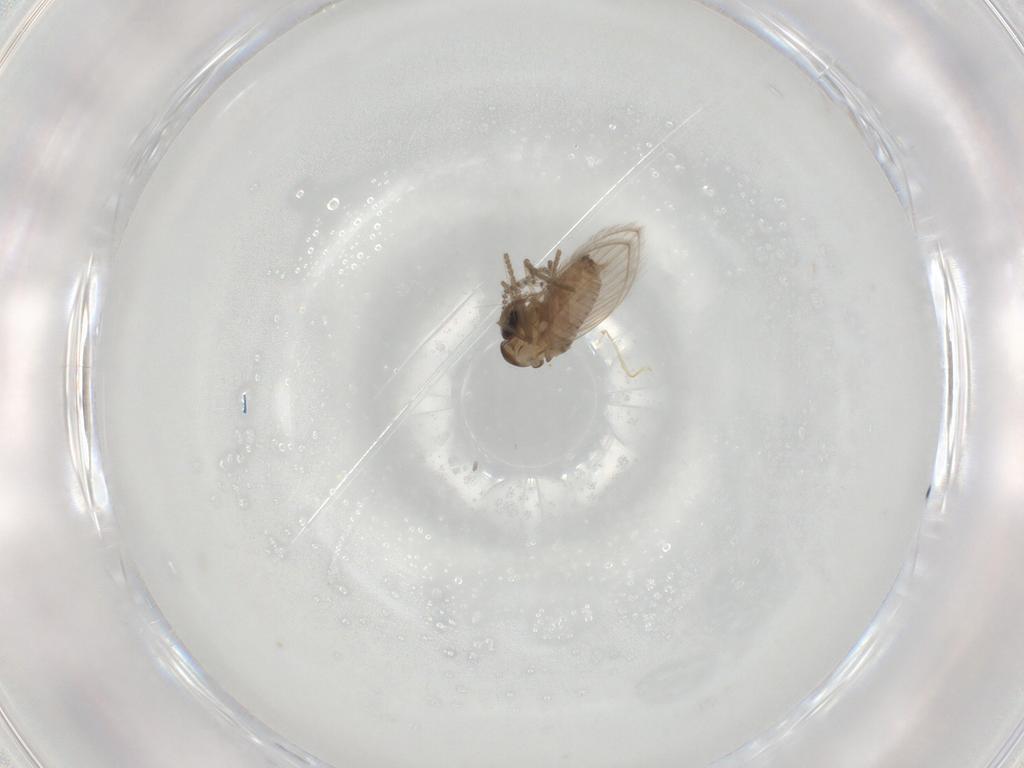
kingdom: Animalia
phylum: Arthropoda
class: Insecta
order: Diptera
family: Psychodidae
